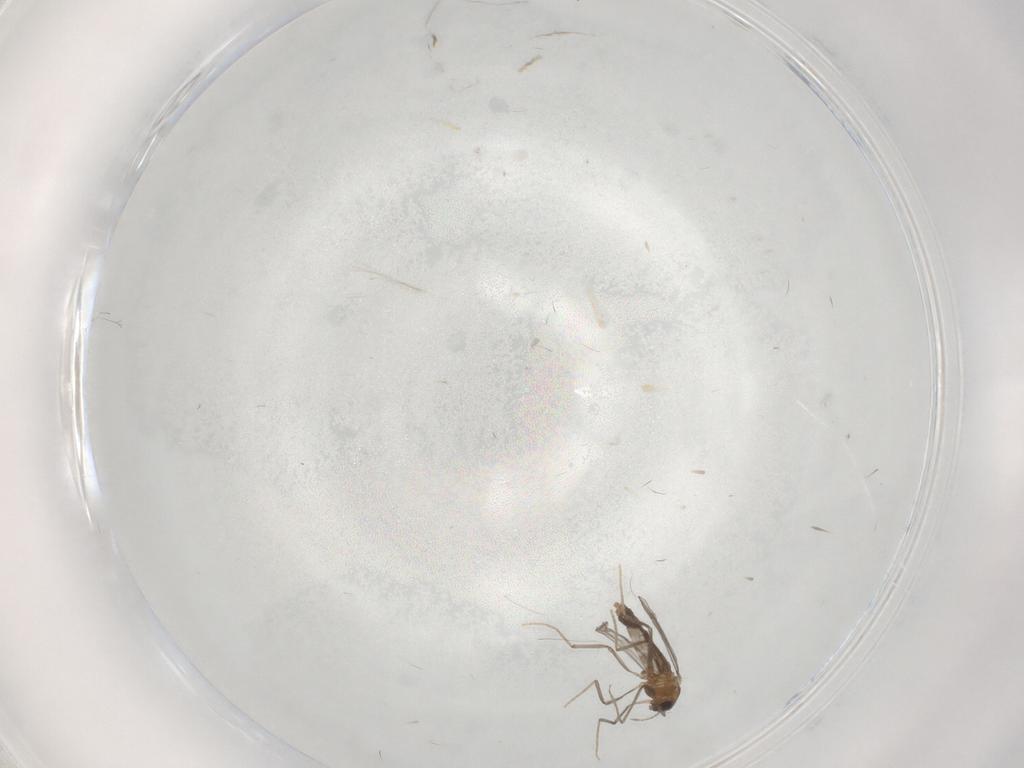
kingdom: Animalia
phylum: Arthropoda
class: Insecta
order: Diptera
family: Chironomidae
